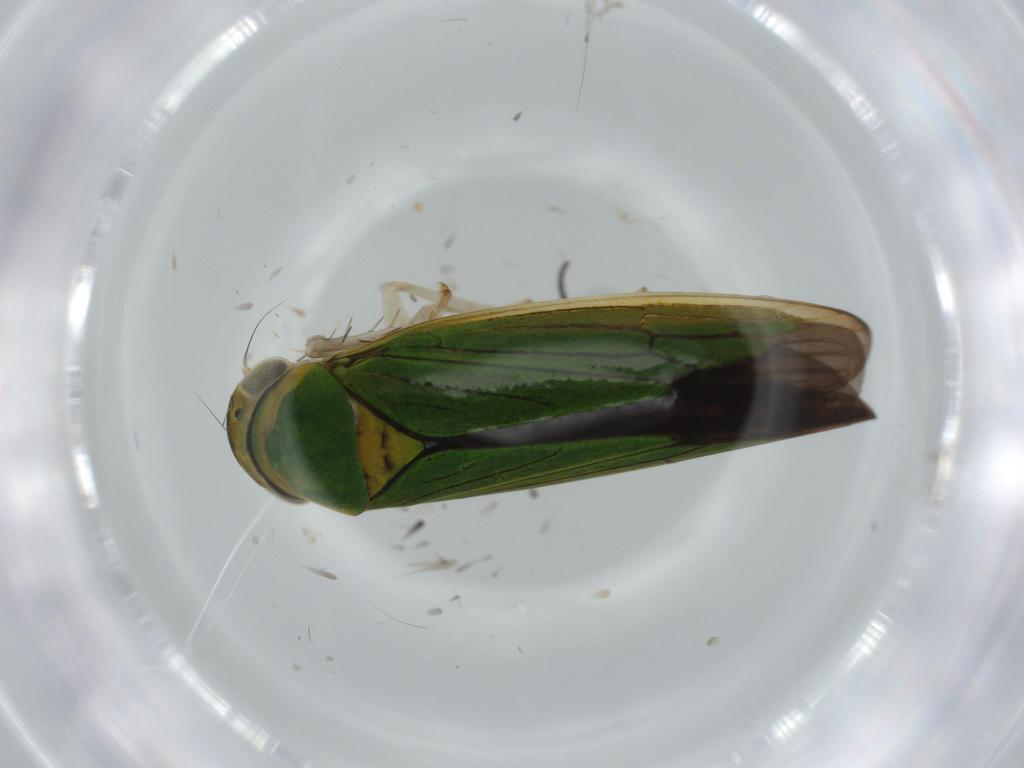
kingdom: Animalia
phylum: Arthropoda
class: Insecta
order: Hemiptera
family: Cicadellidae
